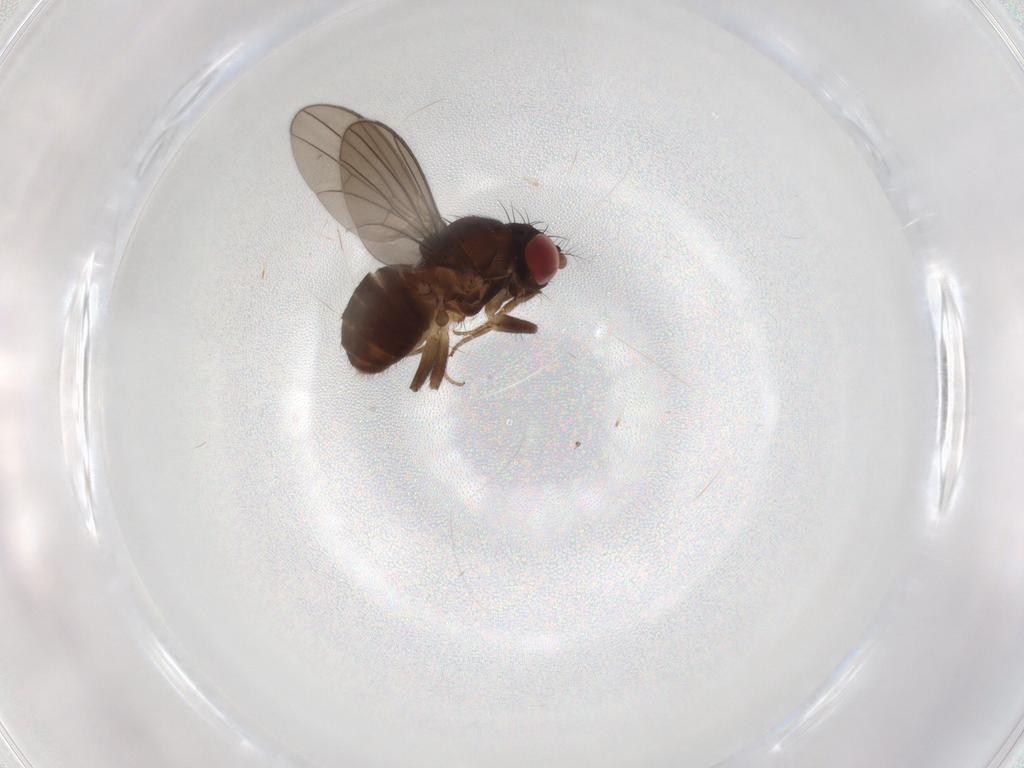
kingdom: Animalia
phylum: Arthropoda
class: Insecta
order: Diptera
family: Drosophilidae
